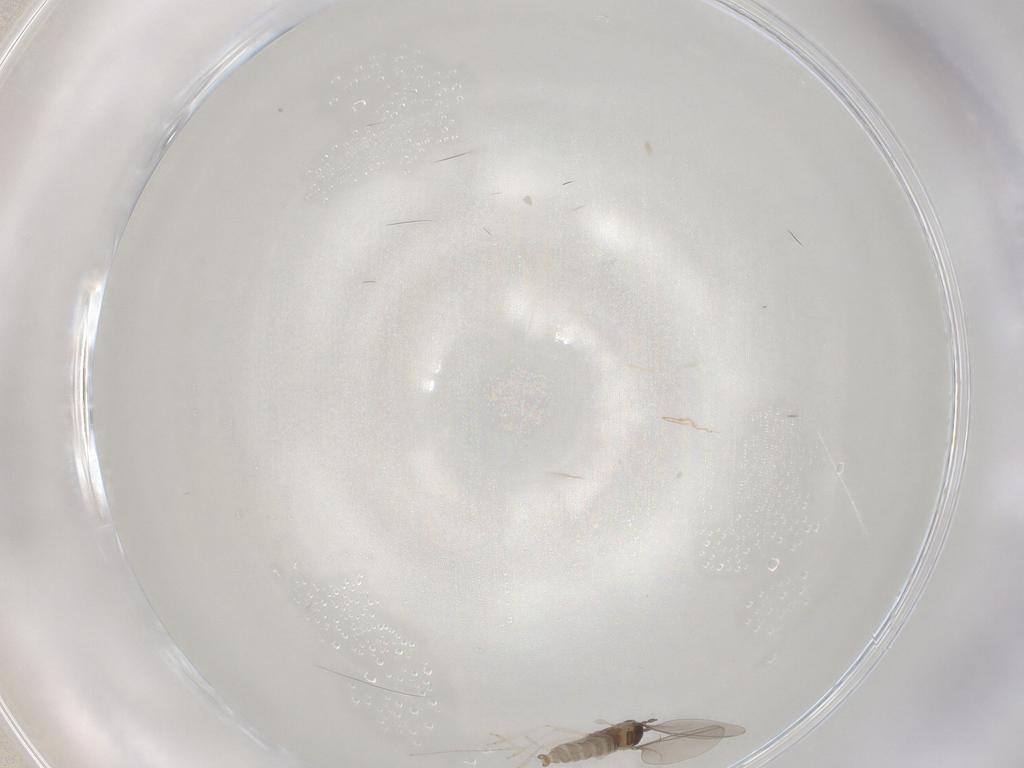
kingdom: Animalia
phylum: Arthropoda
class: Insecta
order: Diptera
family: Cecidomyiidae
